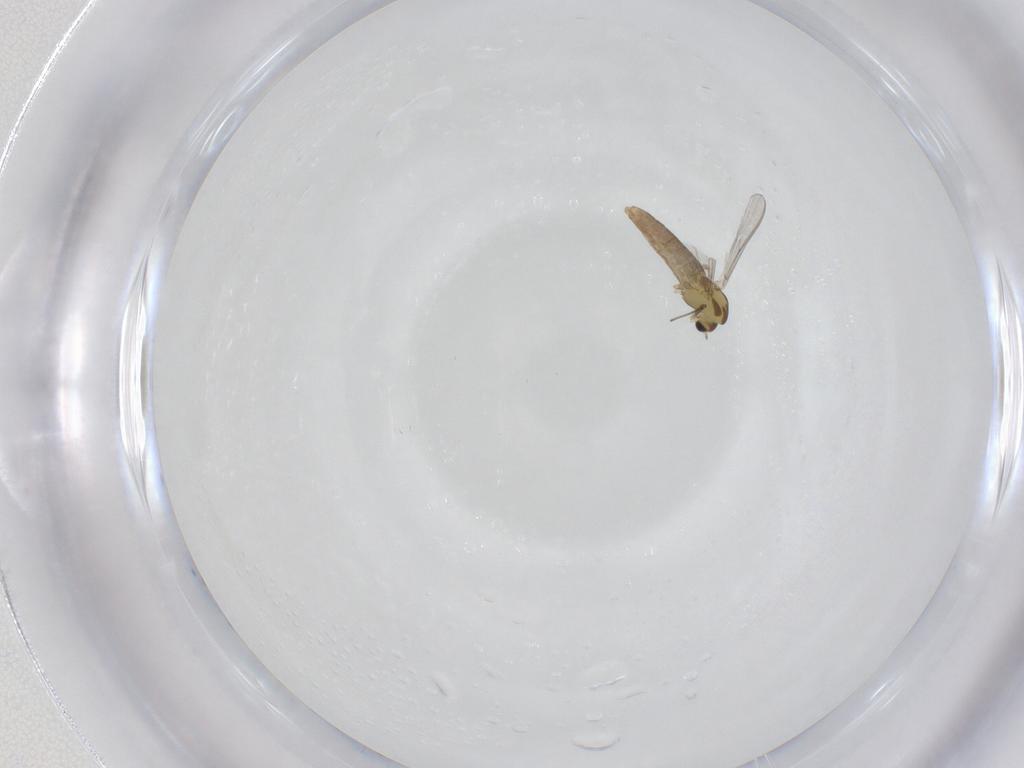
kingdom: Animalia
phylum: Arthropoda
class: Insecta
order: Diptera
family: Chironomidae
